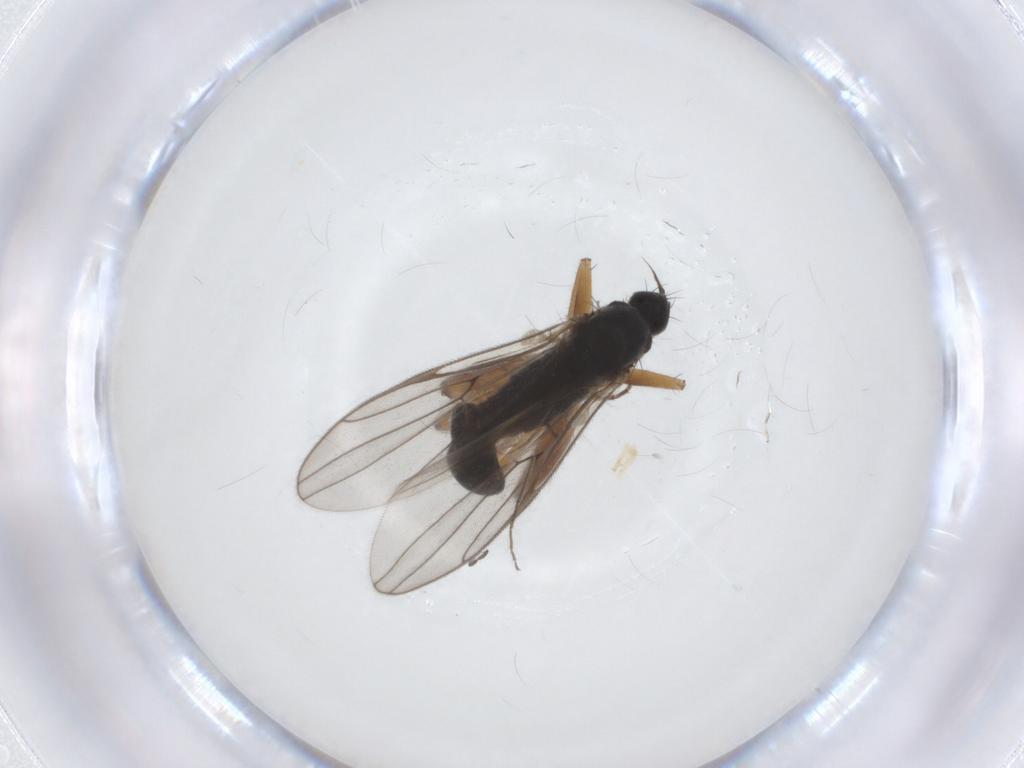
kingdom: Animalia
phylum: Arthropoda
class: Insecta
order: Diptera
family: Hybotidae
